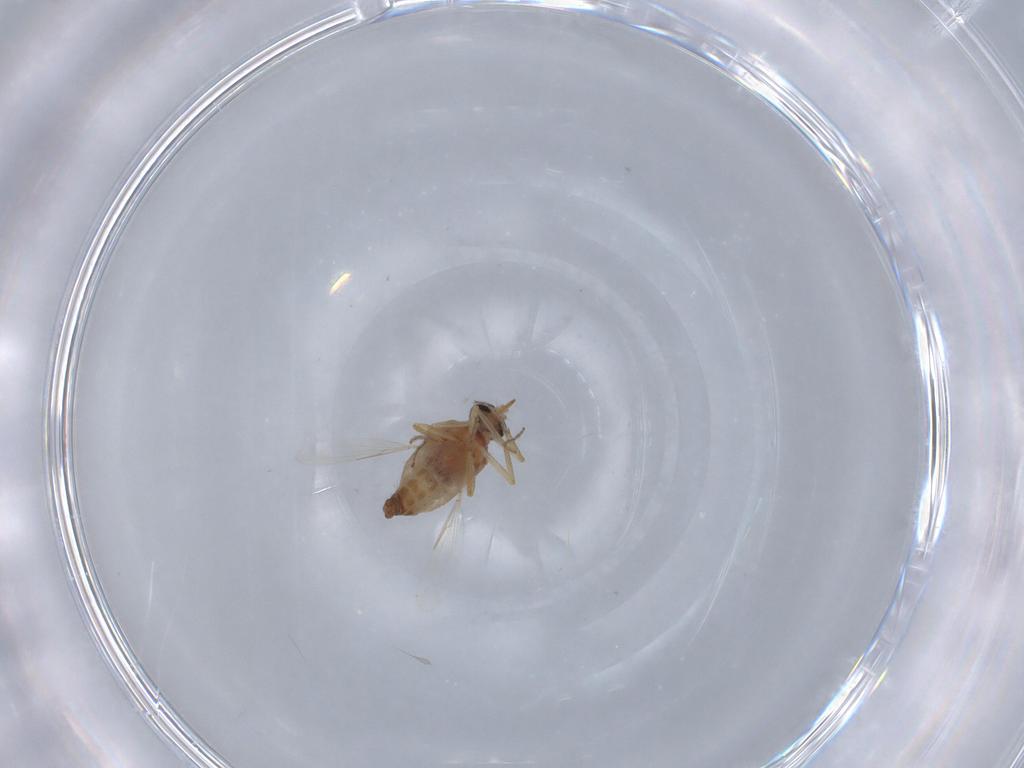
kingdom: Animalia
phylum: Arthropoda
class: Insecta
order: Diptera
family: Ceratopogonidae
